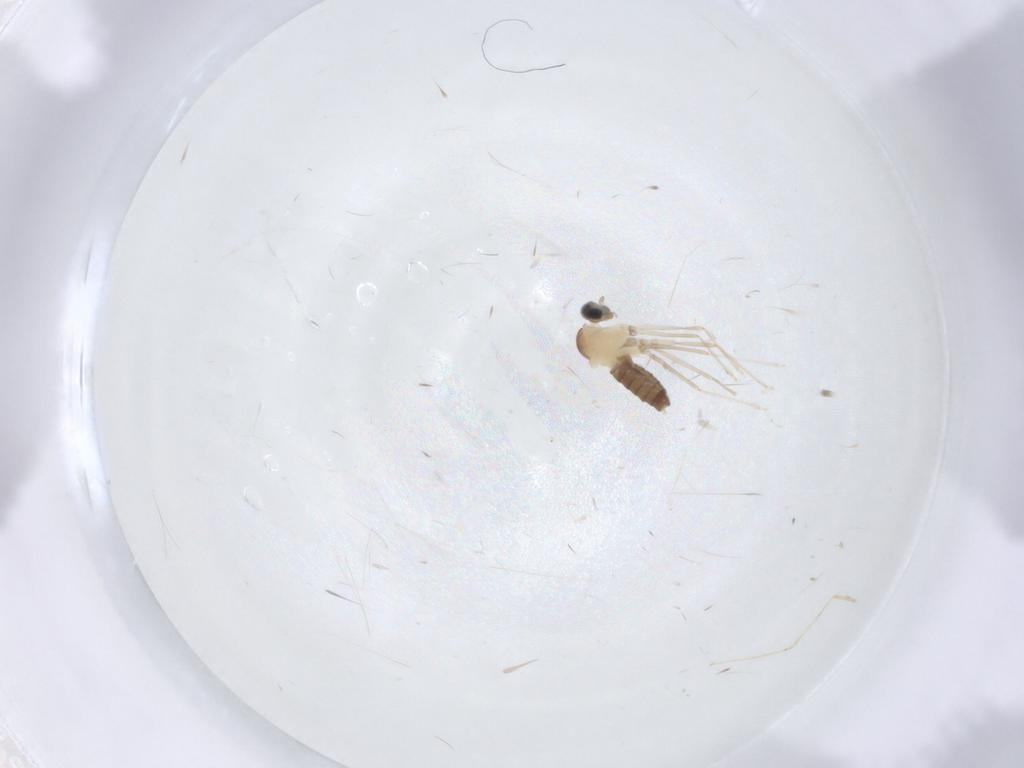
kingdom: Animalia
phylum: Arthropoda
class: Insecta
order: Diptera
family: Cecidomyiidae
